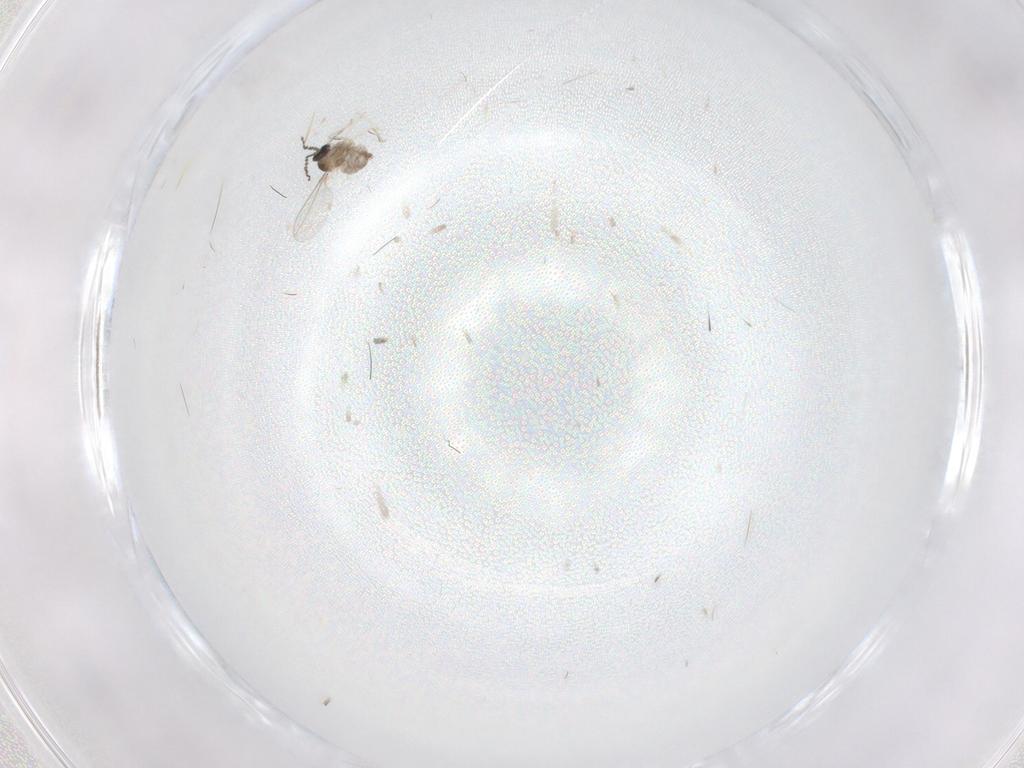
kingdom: Animalia
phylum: Arthropoda
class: Insecta
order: Diptera
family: Cecidomyiidae
